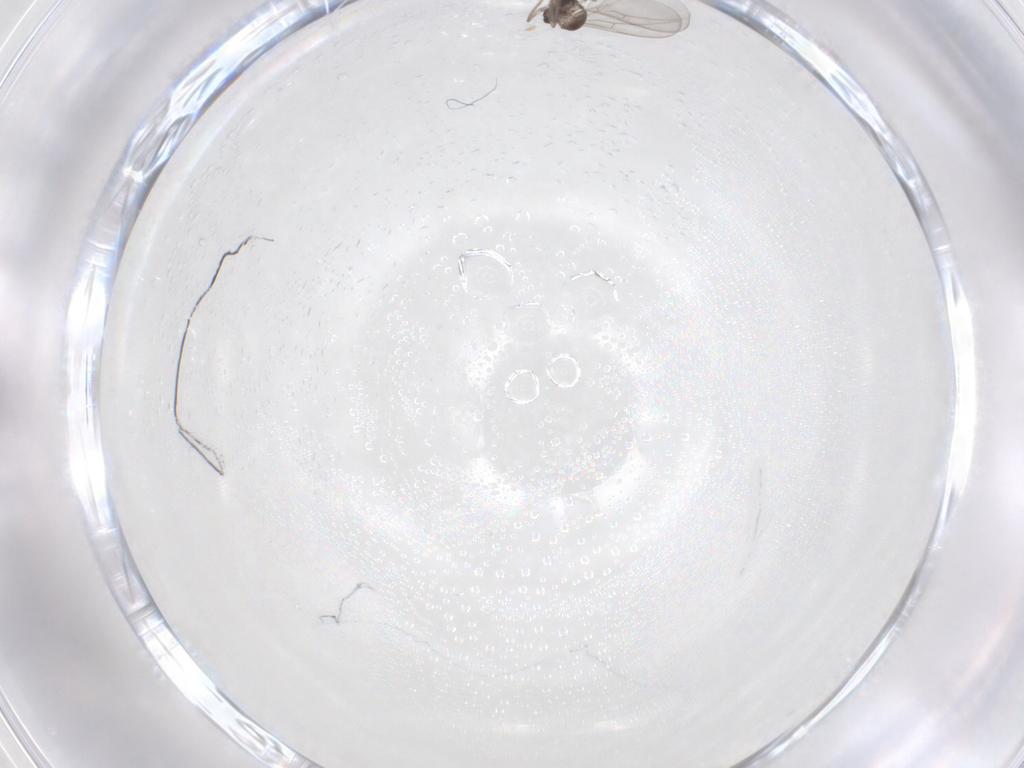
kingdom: Animalia
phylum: Arthropoda
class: Insecta
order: Diptera
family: Cecidomyiidae
